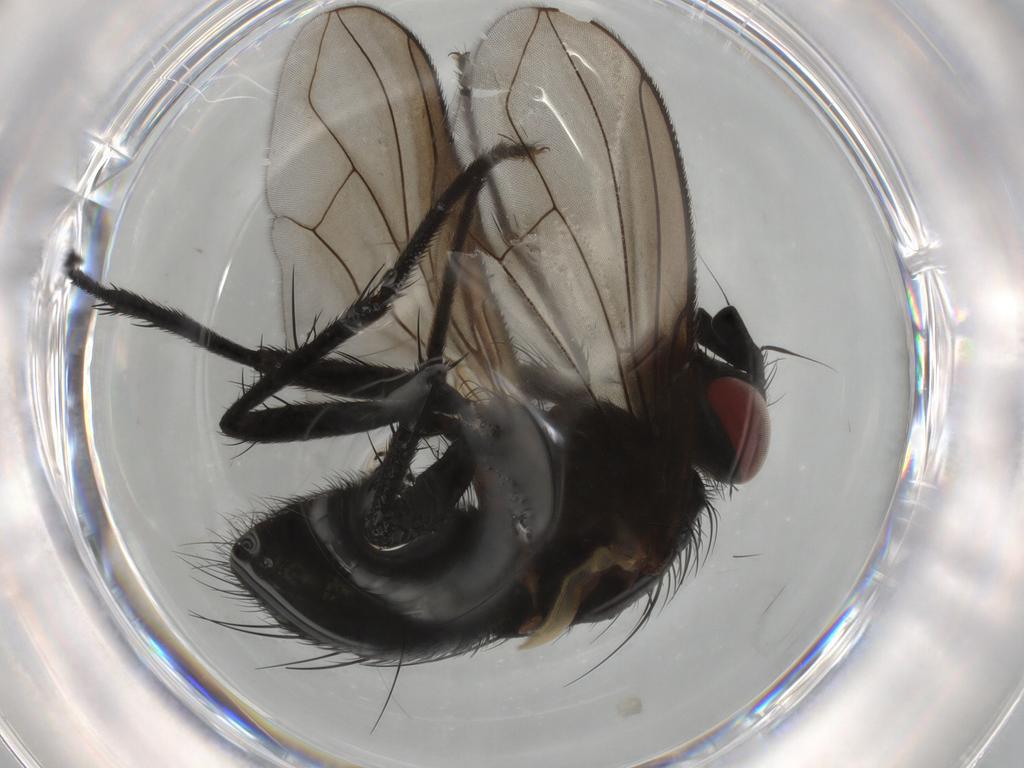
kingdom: Animalia
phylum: Arthropoda
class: Insecta
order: Diptera
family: Tachinidae
